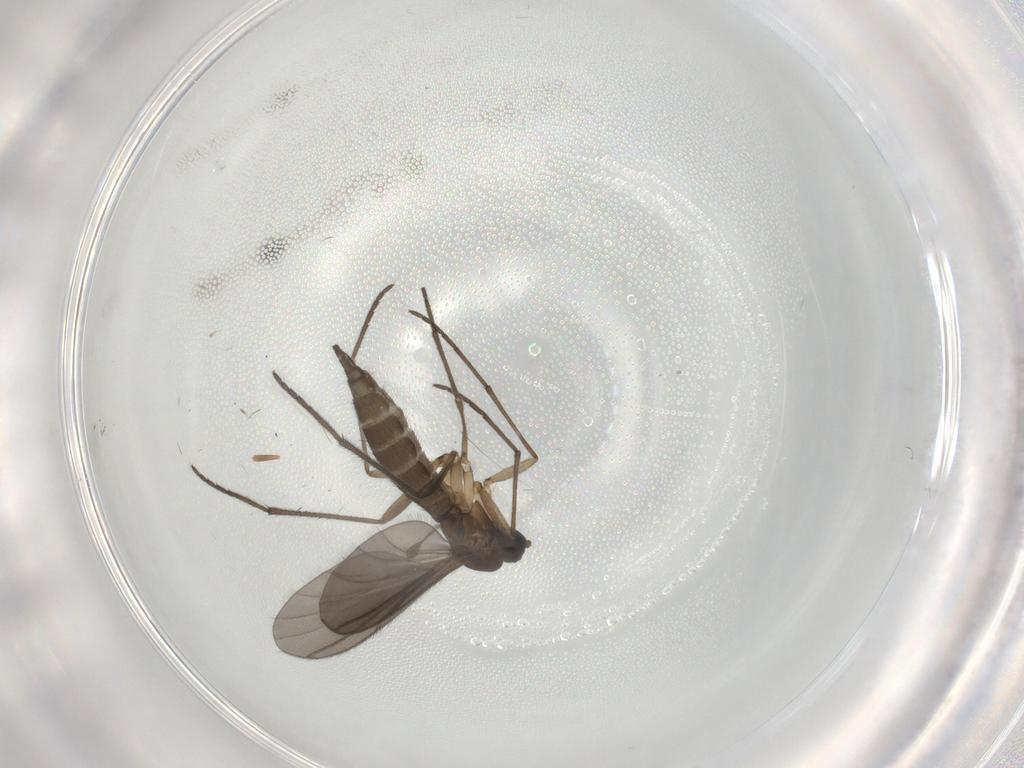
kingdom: Animalia
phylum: Arthropoda
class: Insecta
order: Diptera
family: Sciaridae
